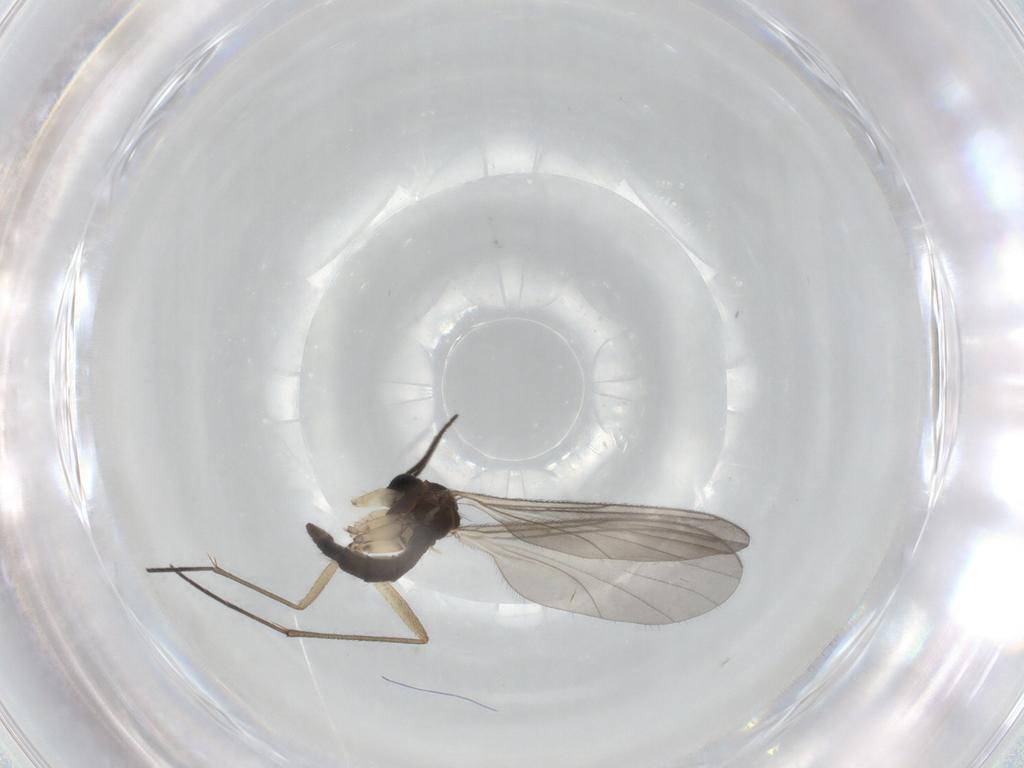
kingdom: Animalia
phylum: Arthropoda
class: Insecta
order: Diptera
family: Sciaridae
